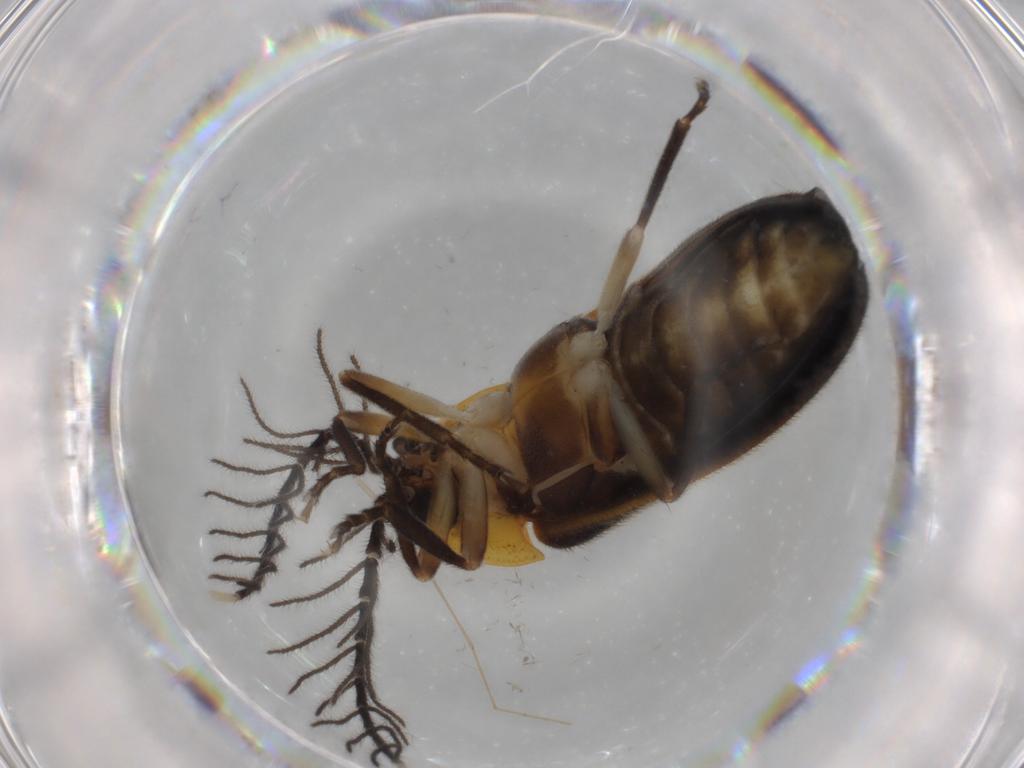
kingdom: Animalia
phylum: Arthropoda
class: Insecta
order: Coleoptera
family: Lampyridae
